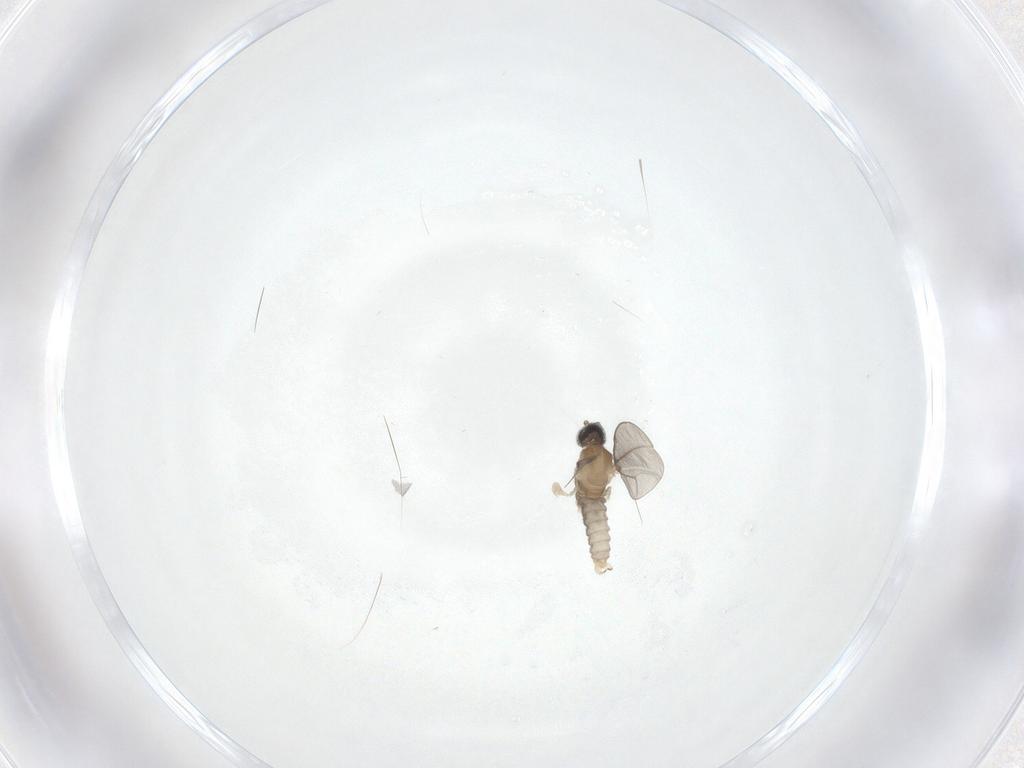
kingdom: Animalia
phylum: Arthropoda
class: Insecta
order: Diptera
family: Cecidomyiidae
